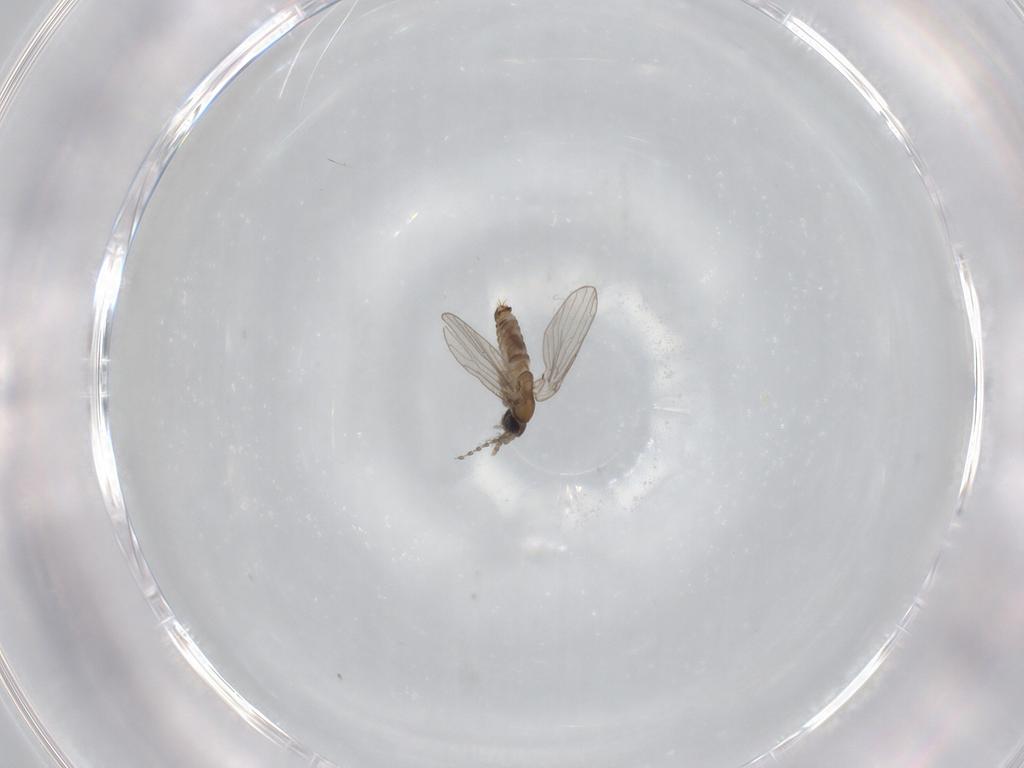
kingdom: Animalia
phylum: Arthropoda
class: Insecta
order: Diptera
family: Psychodidae
